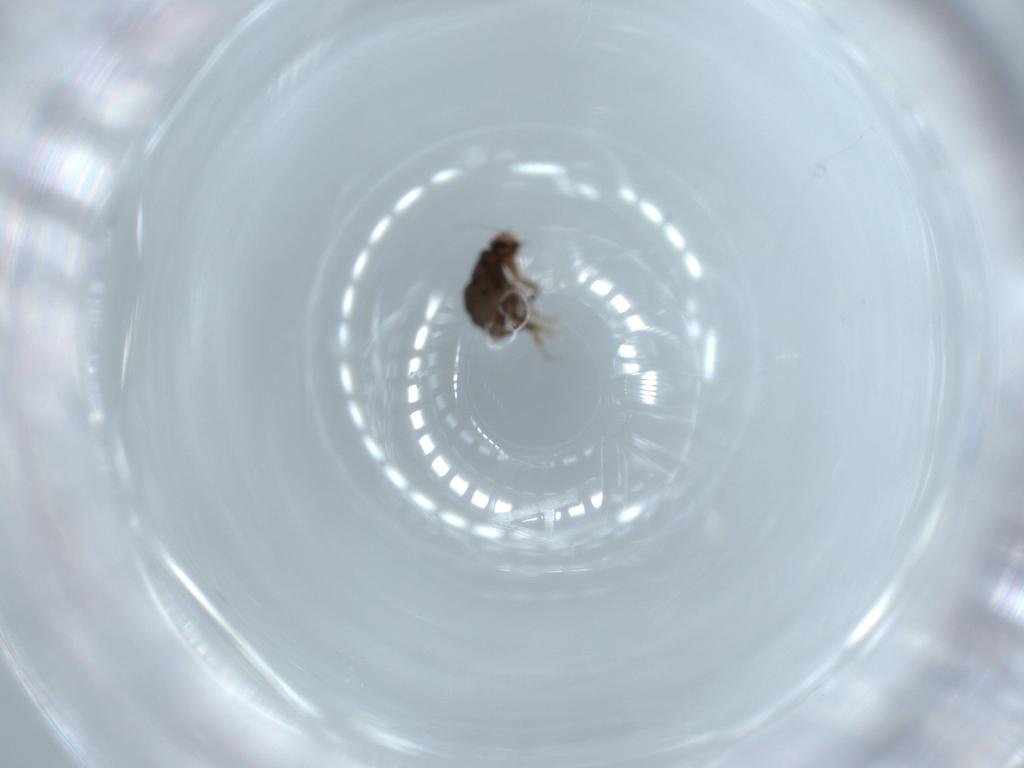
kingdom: Animalia
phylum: Arthropoda
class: Insecta
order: Diptera
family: Phoridae
